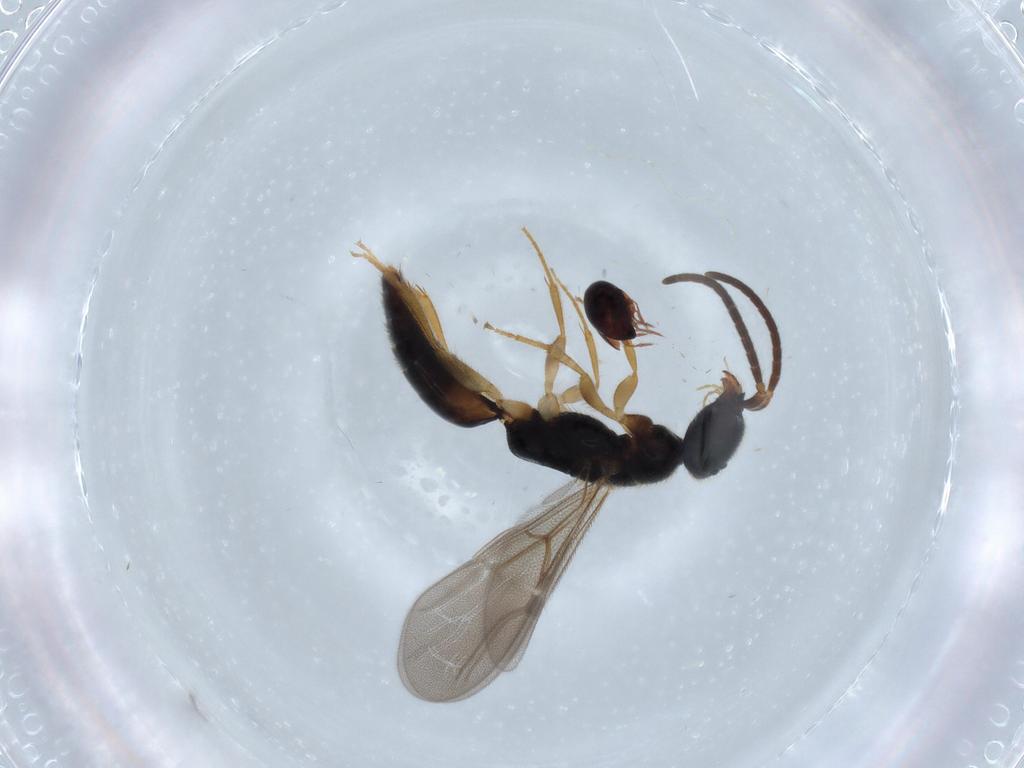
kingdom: Animalia
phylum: Arthropoda
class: Insecta
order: Hymenoptera
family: Bethylidae
